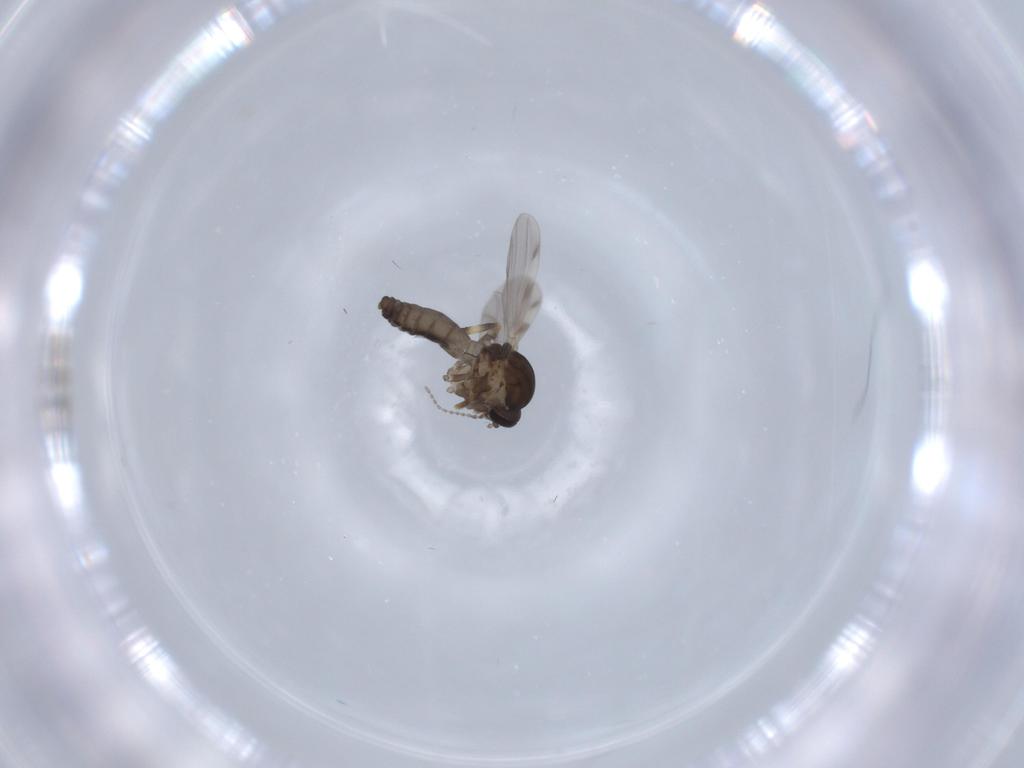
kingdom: Animalia
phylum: Arthropoda
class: Insecta
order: Diptera
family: Ceratopogonidae
